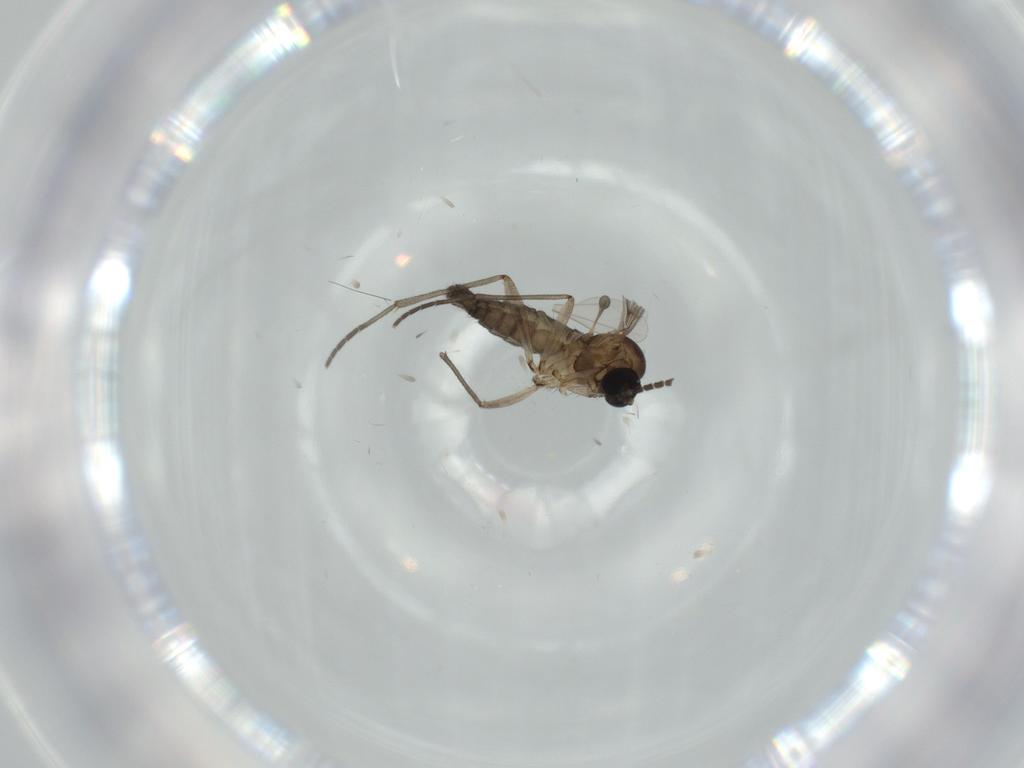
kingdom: Animalia
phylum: Arthropoda
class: Insecta
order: Diptera
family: Sciaridae
